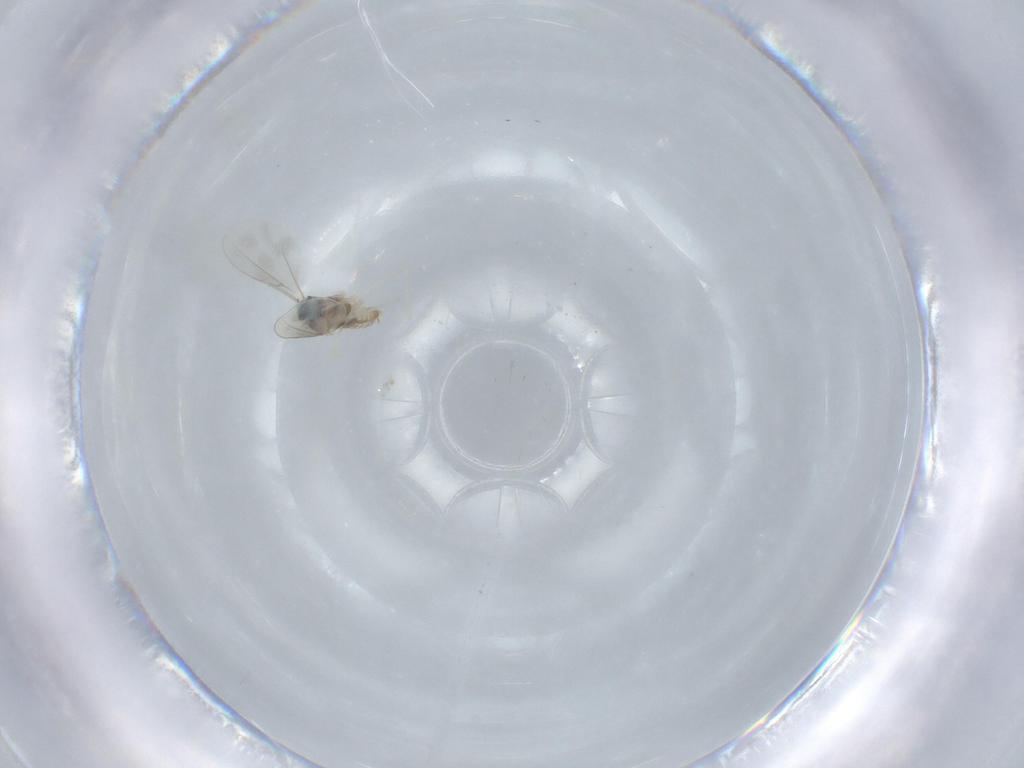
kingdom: Animalia
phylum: Arthropoda
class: Insecta
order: Diptera
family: Cecidomyiidae
